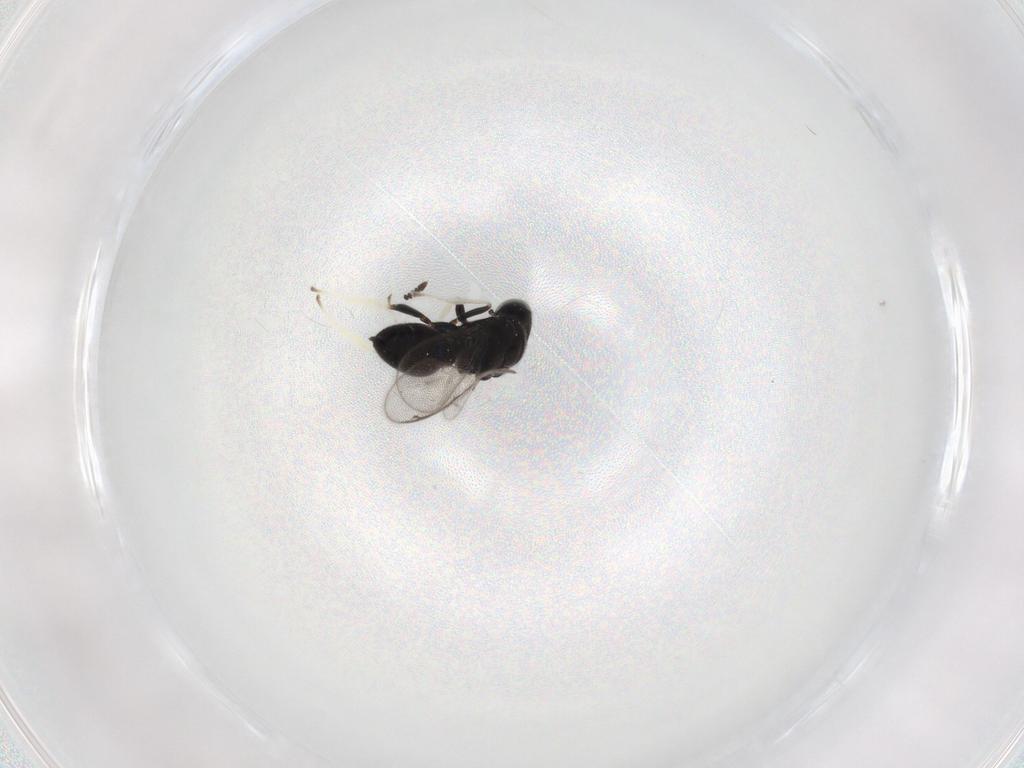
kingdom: Animalia
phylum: Arthropoda
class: Insecta
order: Hymenoptera
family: Herbertiidae
